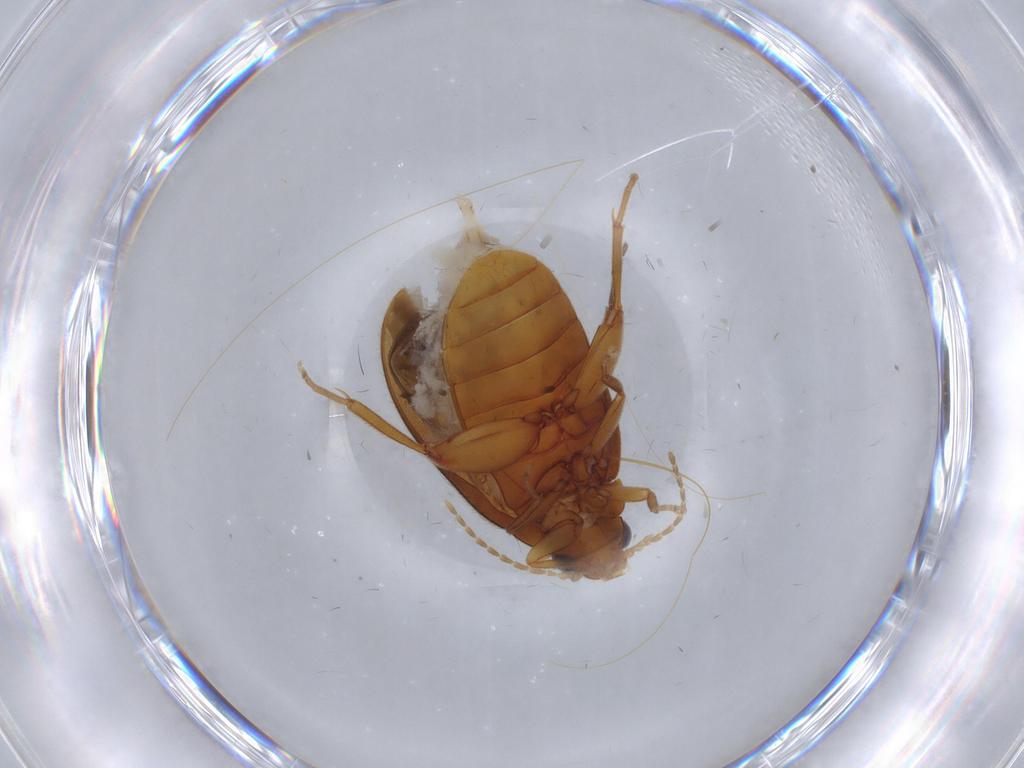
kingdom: Animalia
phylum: Arthropoda
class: Insecta
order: Coleoptera
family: Scirtidae
